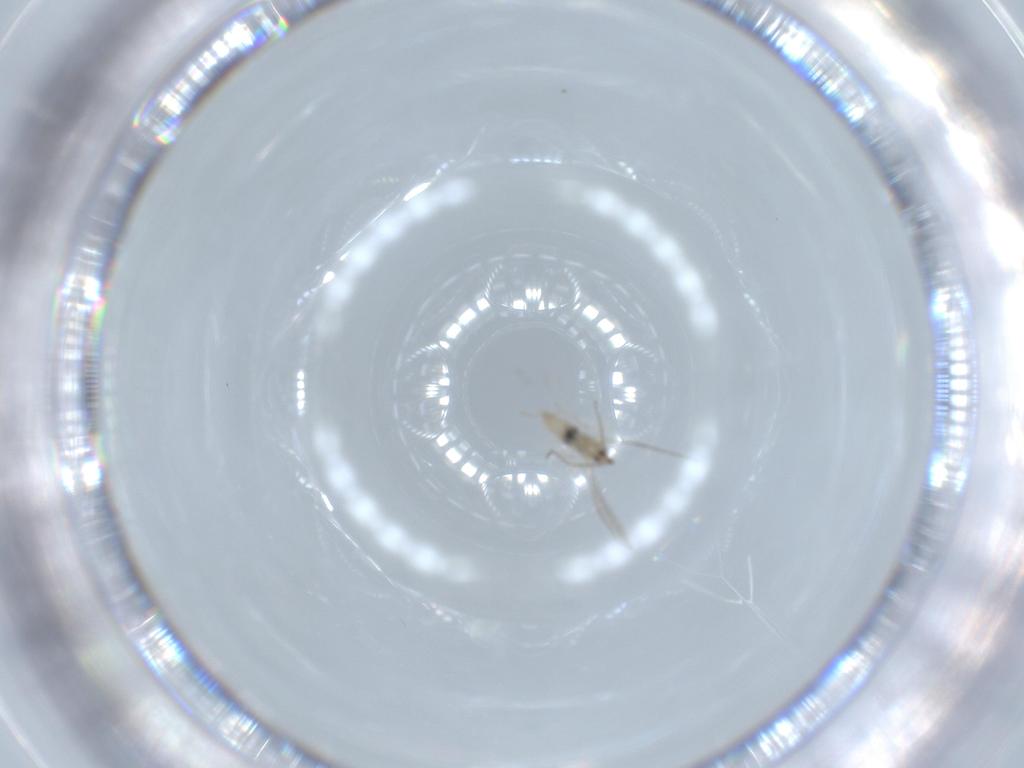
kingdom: Animalia
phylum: Arthropoda
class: Insecta
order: Diptera
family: Cecidomyiidae
